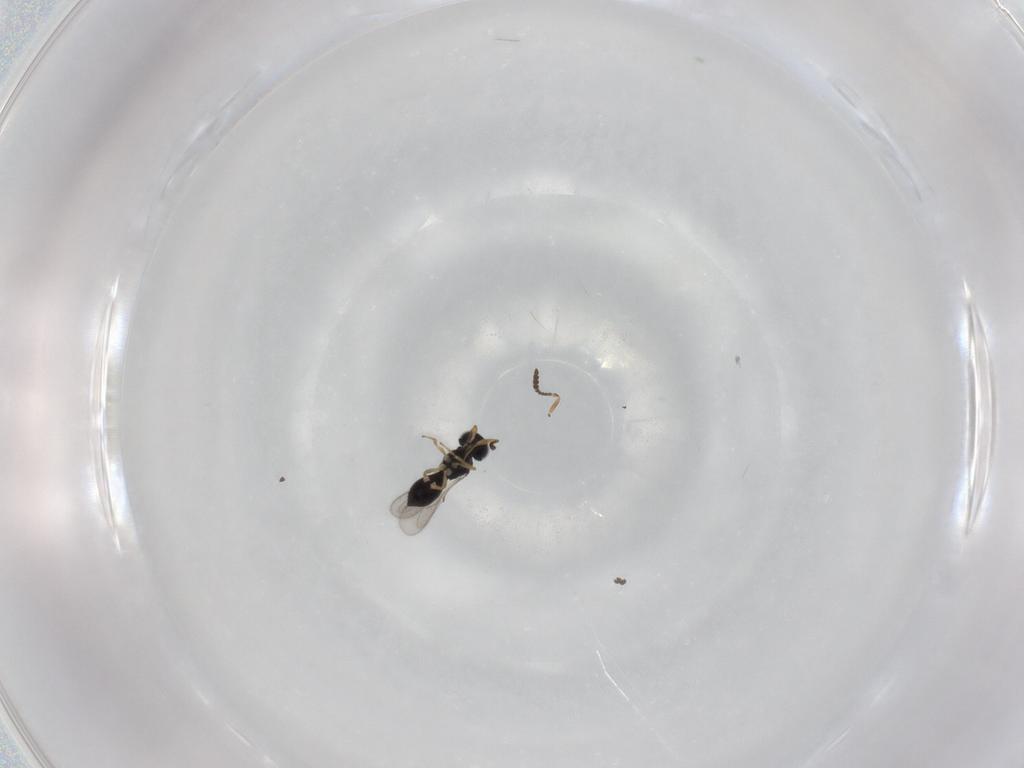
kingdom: Animalia
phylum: Arthropoda
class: Insecta
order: Hymenoptera
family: Scelionidae
